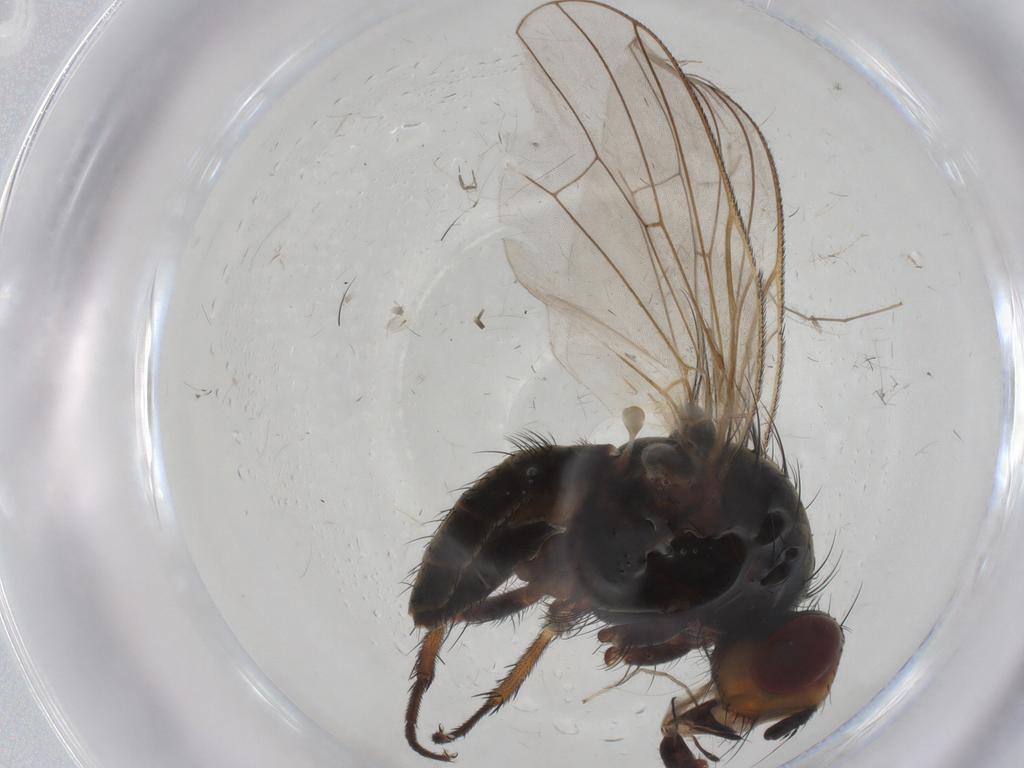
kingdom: Animalia
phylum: Arthropoda
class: Insecta
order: Diptera
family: Anthomyiidae
